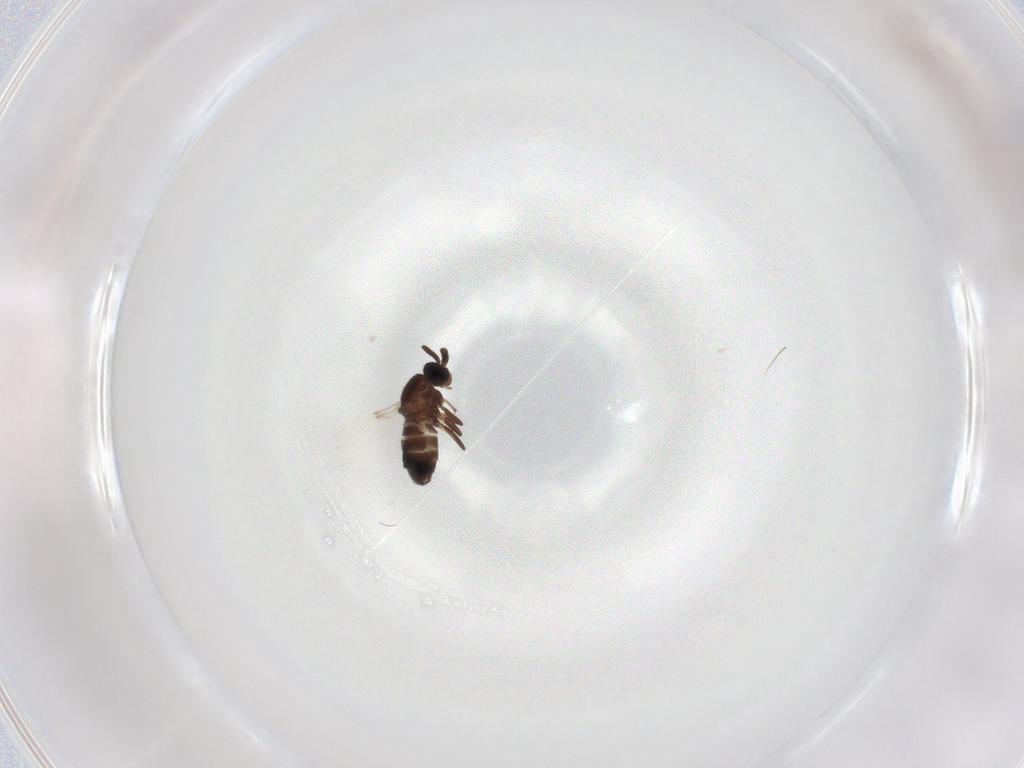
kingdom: Animalia
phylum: Arthropoda
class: Insecta
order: Diptera
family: Scatopsidae
